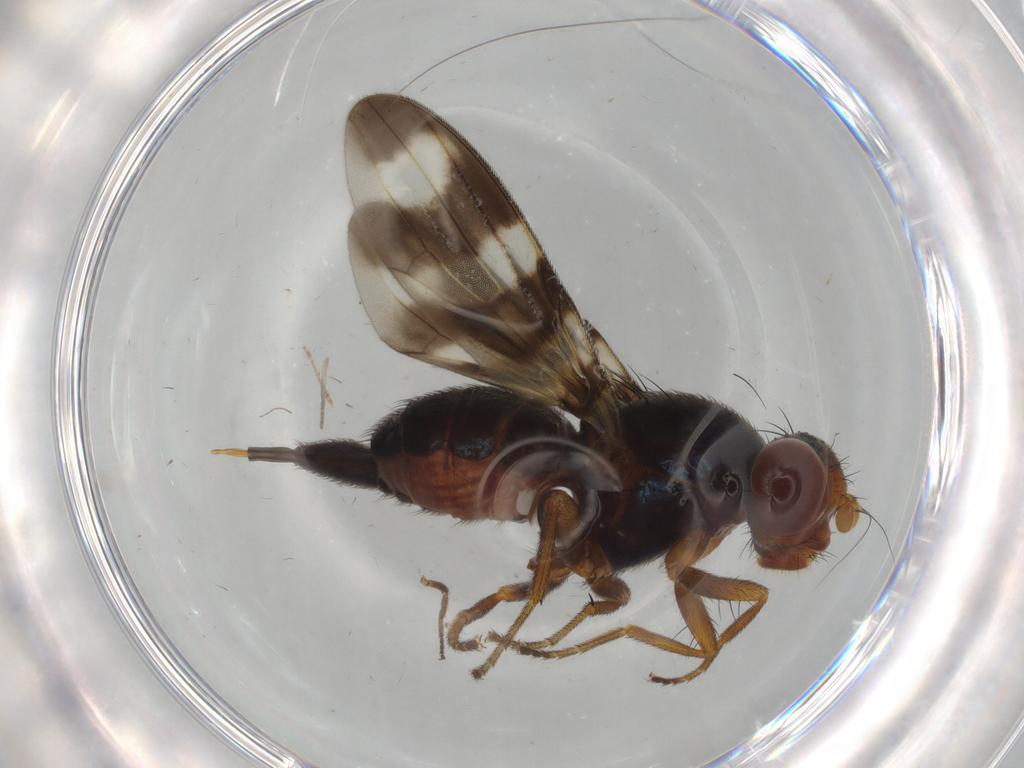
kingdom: Animalia
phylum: Arthropoda
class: Insecta
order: Diptera
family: Ulidiidae
